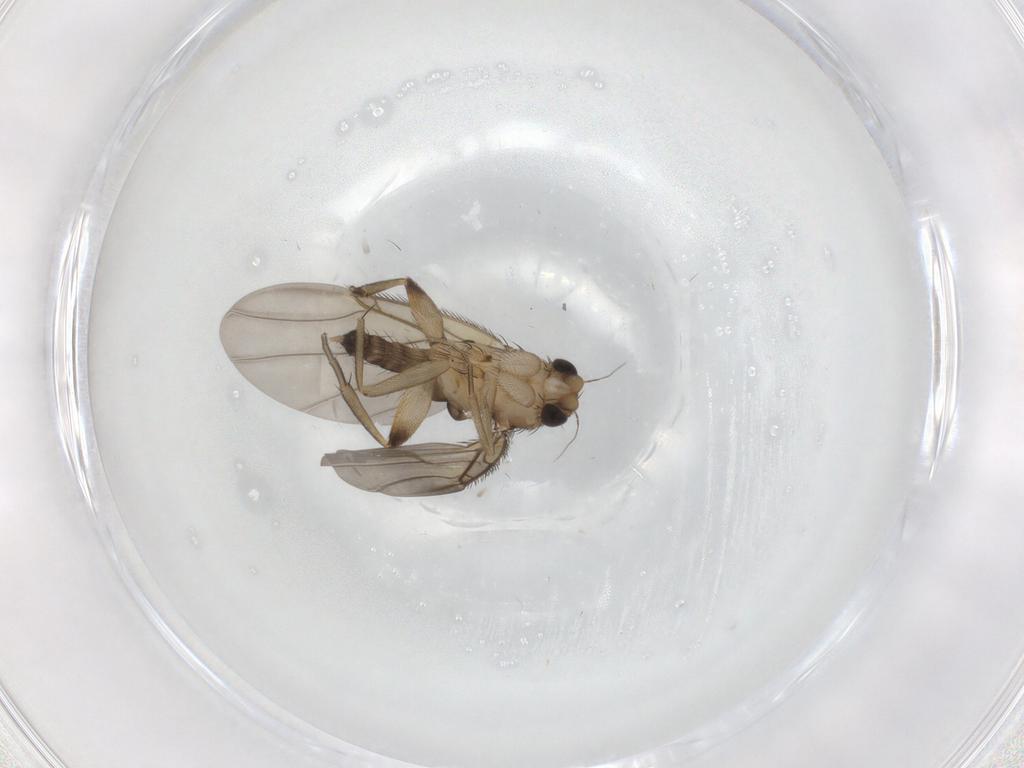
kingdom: Animalia
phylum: Arthropoda
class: Insecta
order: Diptera
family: Phoridae
